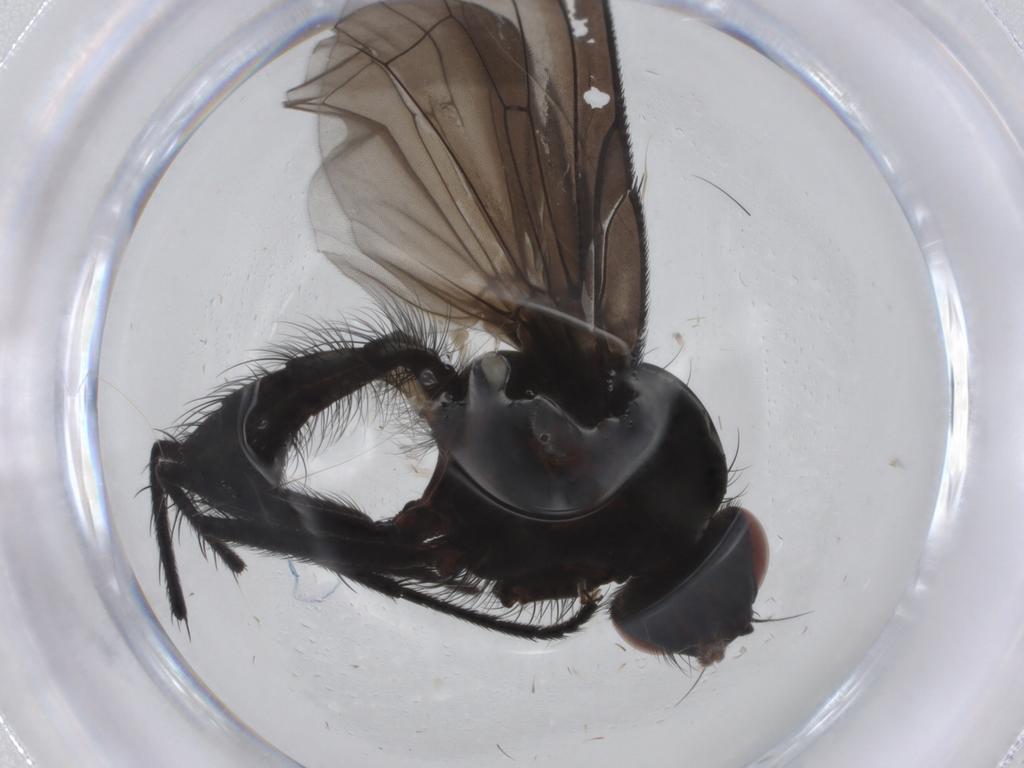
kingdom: Animalia
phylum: Arthropoda
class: Insecta
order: Diptera
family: Anthomyiidae
